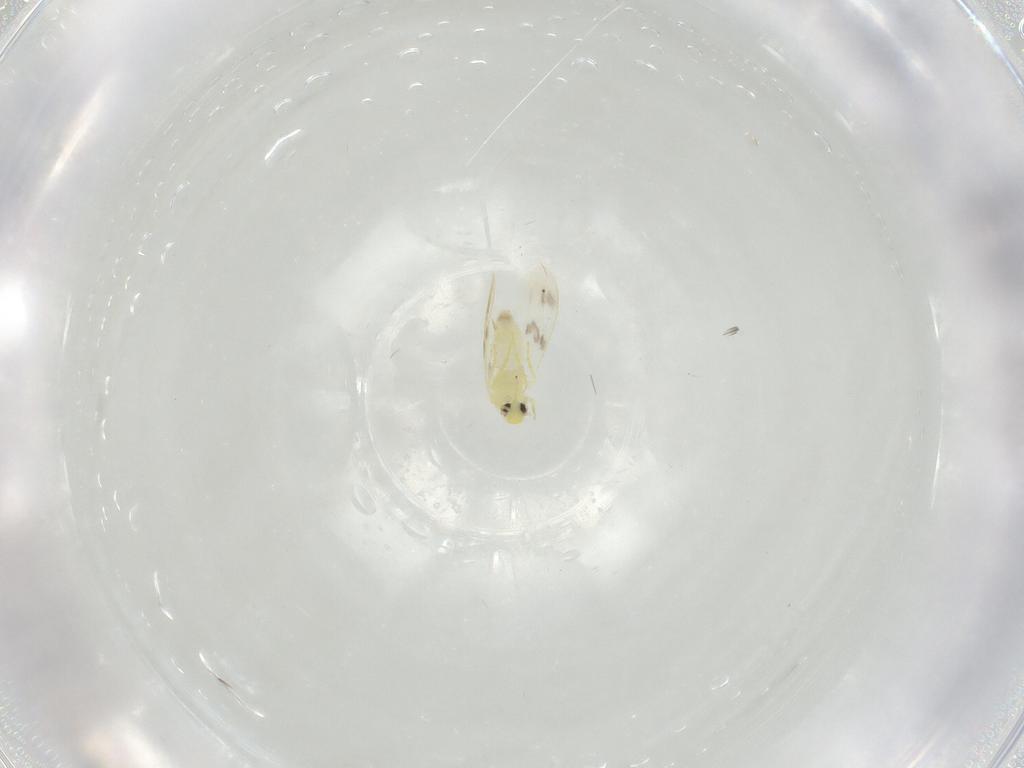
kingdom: Animalia
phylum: Arthropoda
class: Insecta
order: Hemiptera
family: Aleyrodidae
